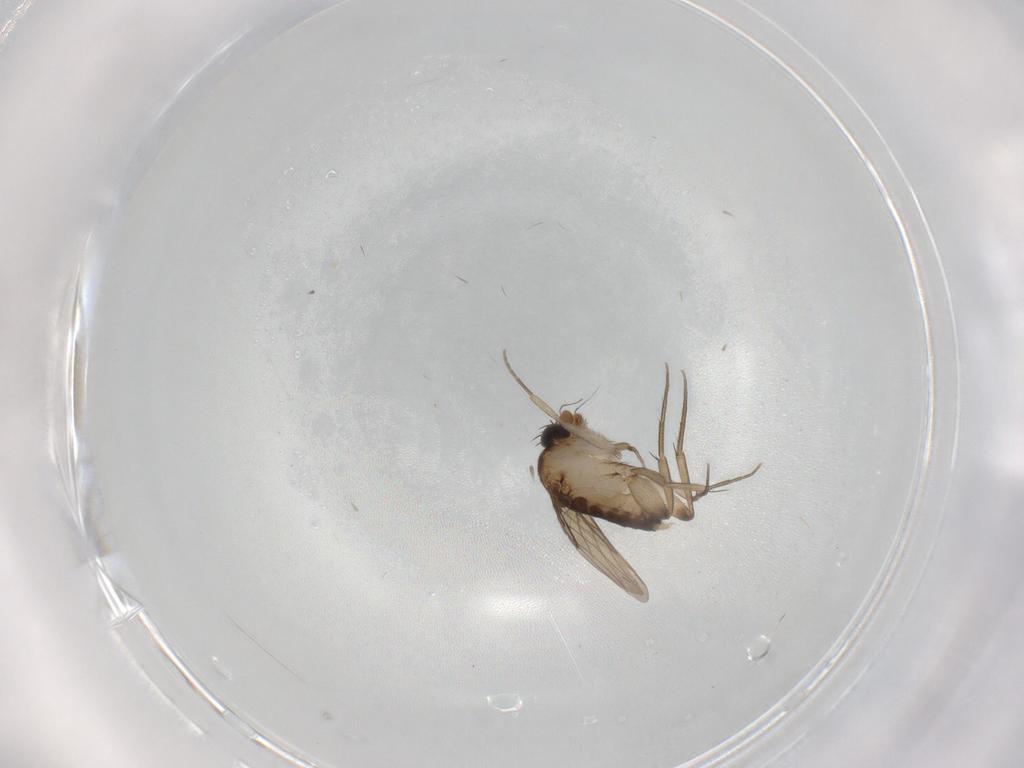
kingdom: Animalia
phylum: Arthropoda
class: Insecta
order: Diptera
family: Phoridae
